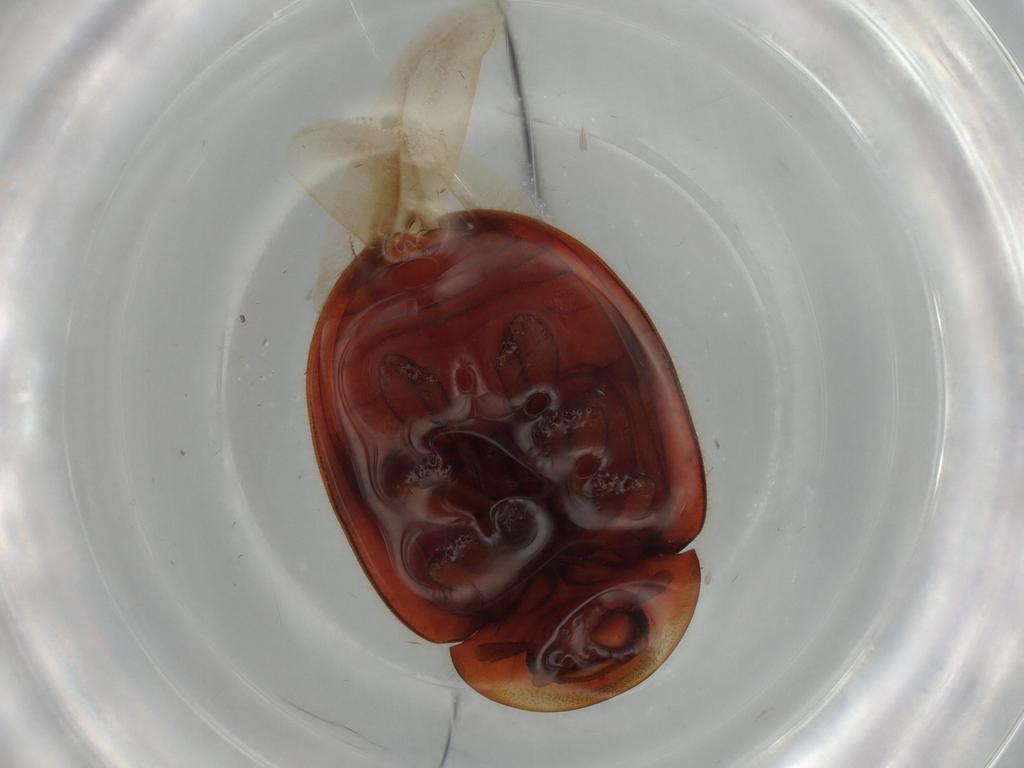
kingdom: Animalia
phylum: Arthropoda
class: Insecta
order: Coleoptera
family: Coccinellidae
